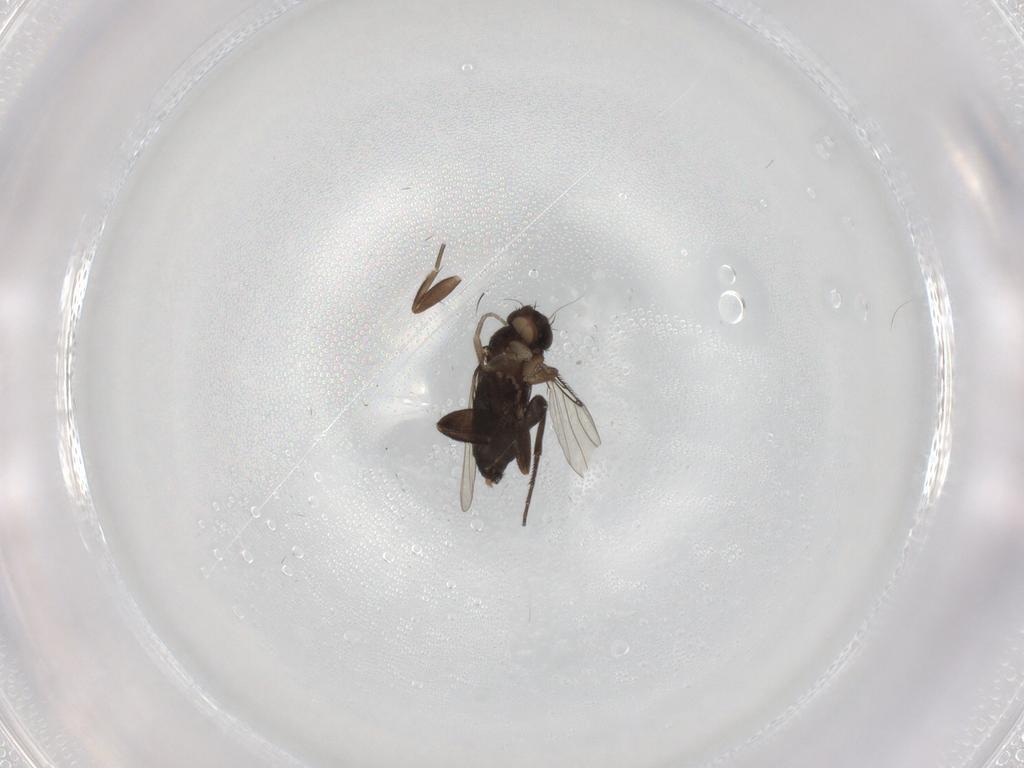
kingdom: Animalia
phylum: Arthropoda
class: Insecta
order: Diptera
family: Phoridae
